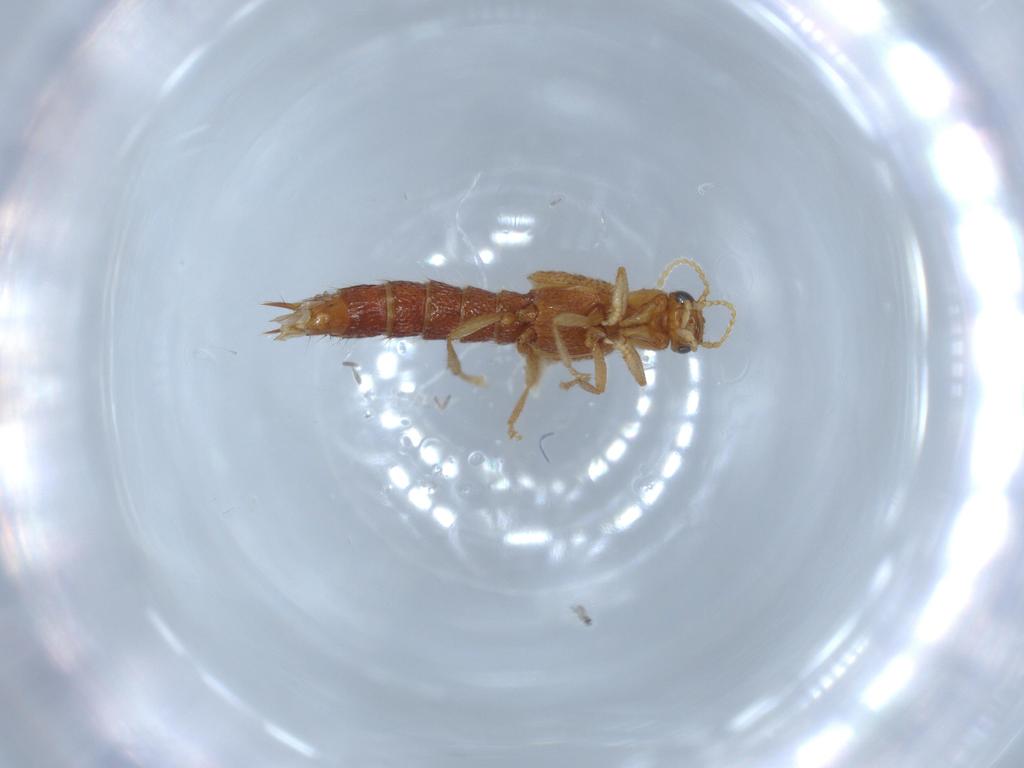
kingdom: Animalia
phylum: Arthropoda
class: Insecta
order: Coleoptera
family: Staphylinidae
